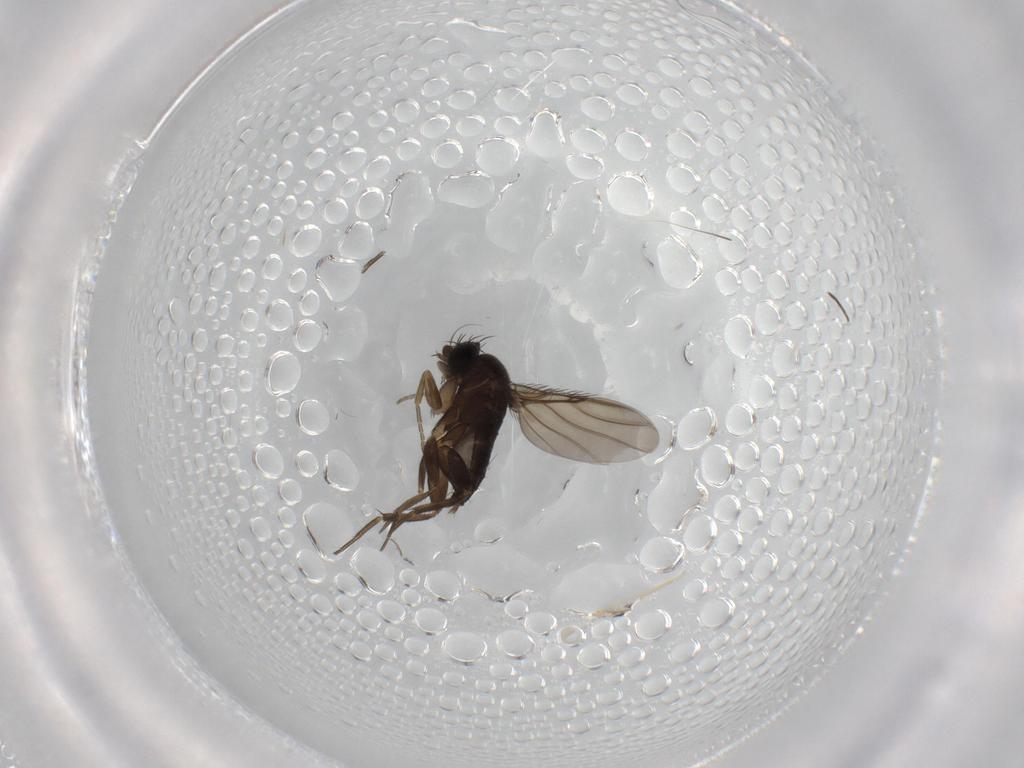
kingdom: Animalia
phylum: Arthropoda
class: Insecta
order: Diptera
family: Phoridae
